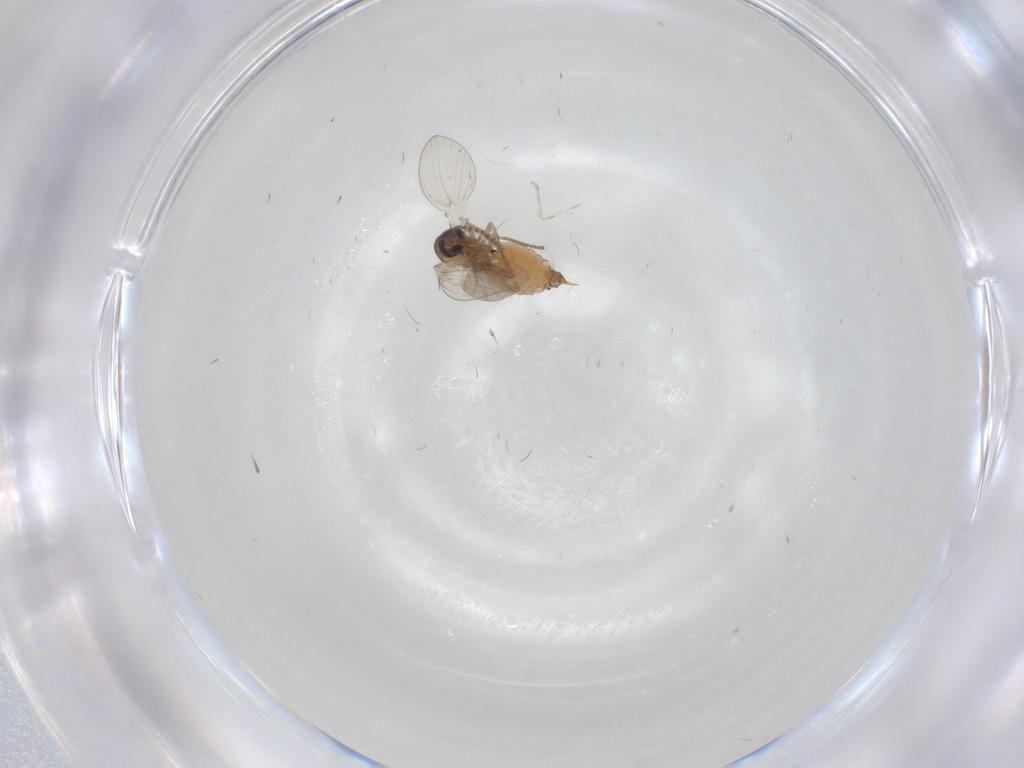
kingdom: Animalia
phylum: Arthropoda
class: Insecta
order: Diptera
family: Psychodidae
